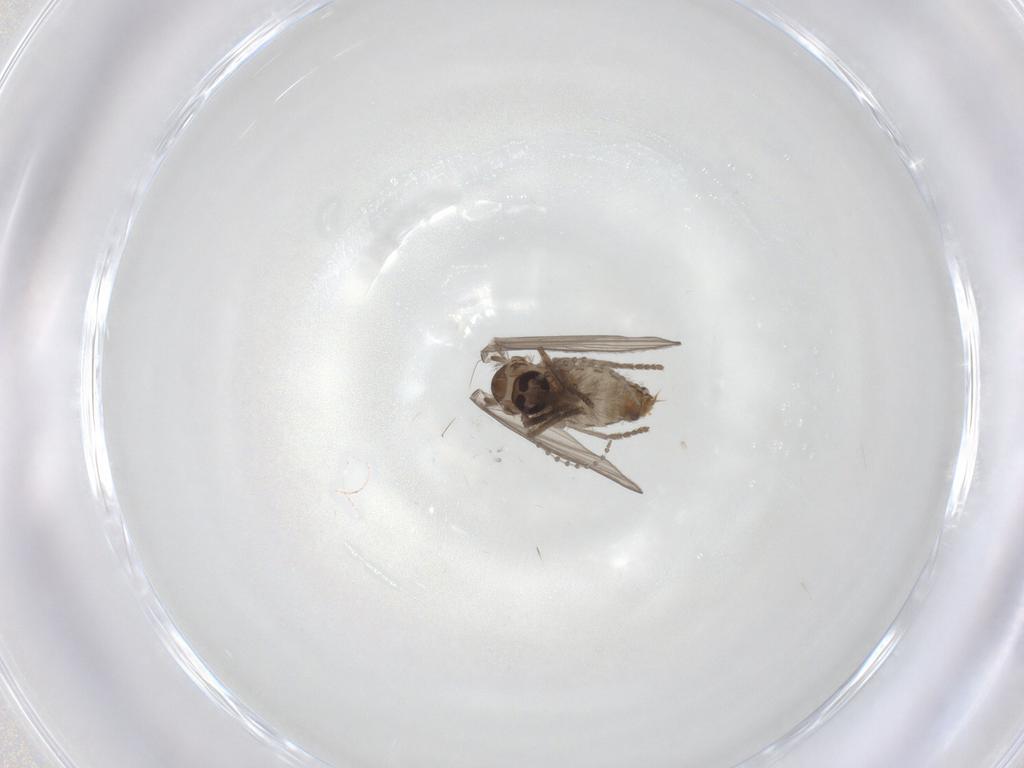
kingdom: Animalia
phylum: Arthropoda
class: Insecta
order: Diptera
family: Psychodidae
